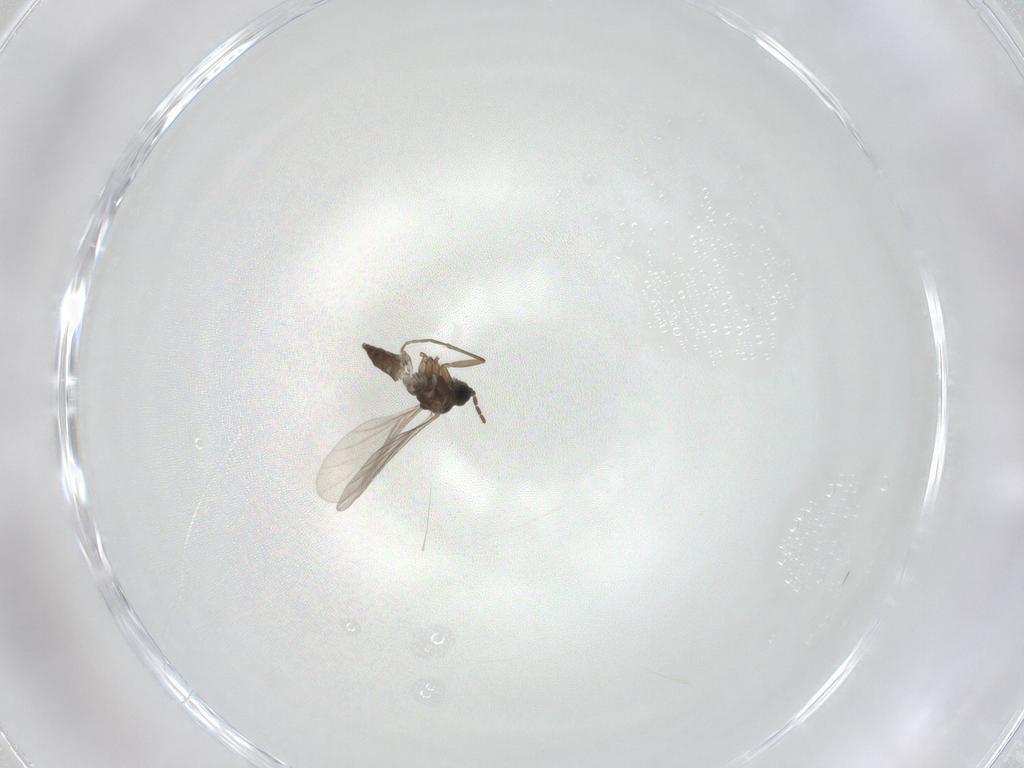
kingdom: Animalia
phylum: Arthropoda
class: Insecta
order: Diptera
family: Sciaridae
